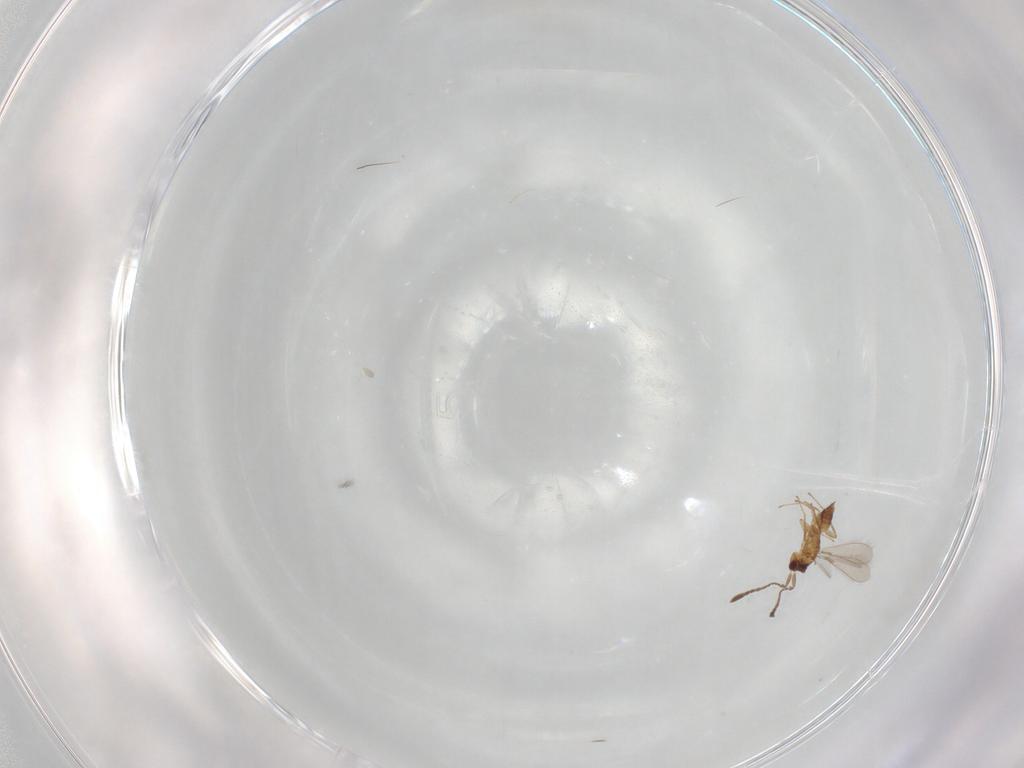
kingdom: Animalia
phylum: Arthropoda
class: Insecta
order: Hymenoptera
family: Mymaridae
